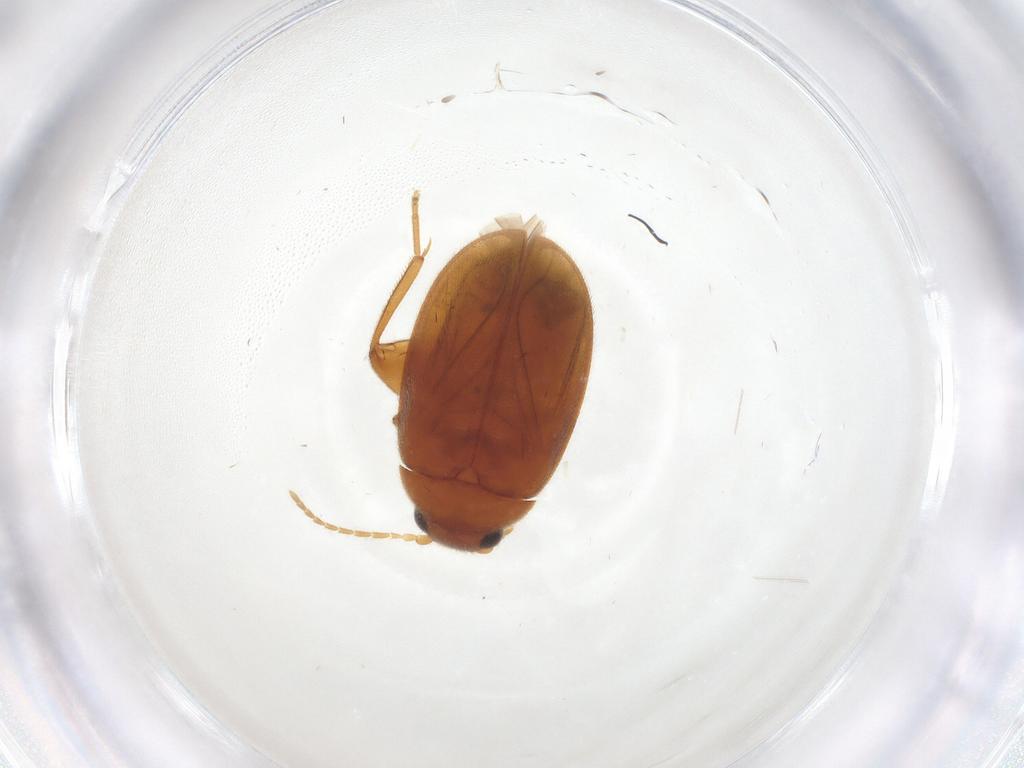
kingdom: Animalia
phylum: Arthropoda
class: Insecta
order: Coleoptera
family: Scirtidae
